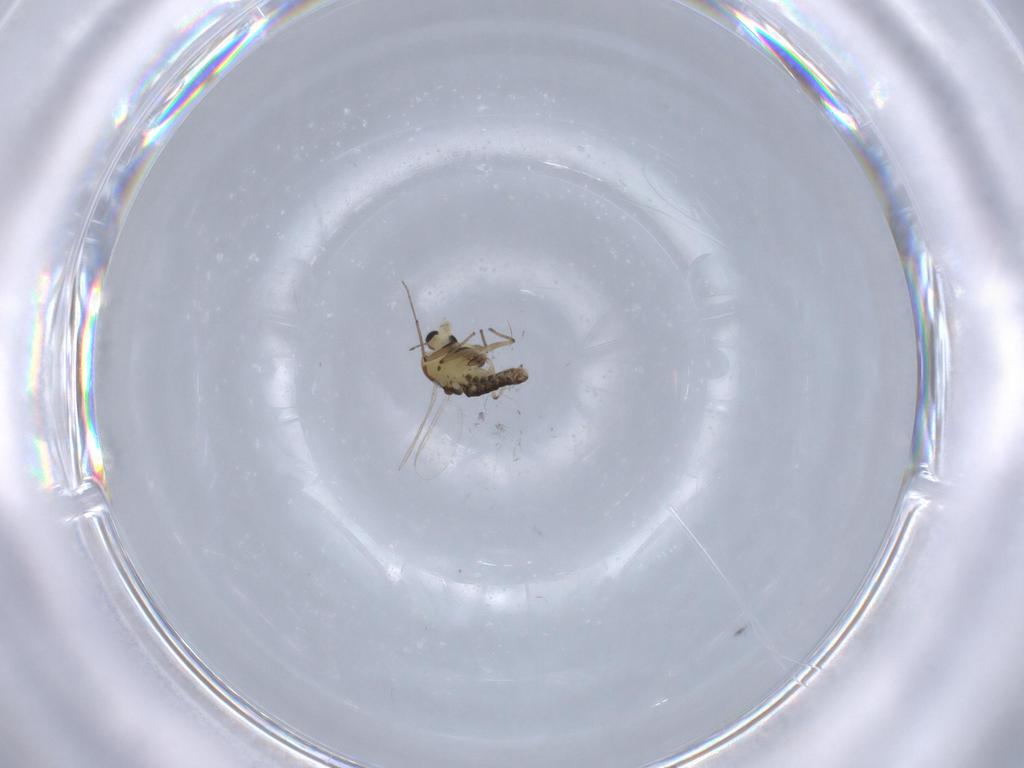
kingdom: Animalia
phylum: Arthropoda
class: Insecta
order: Diptera
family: Chironomidae
